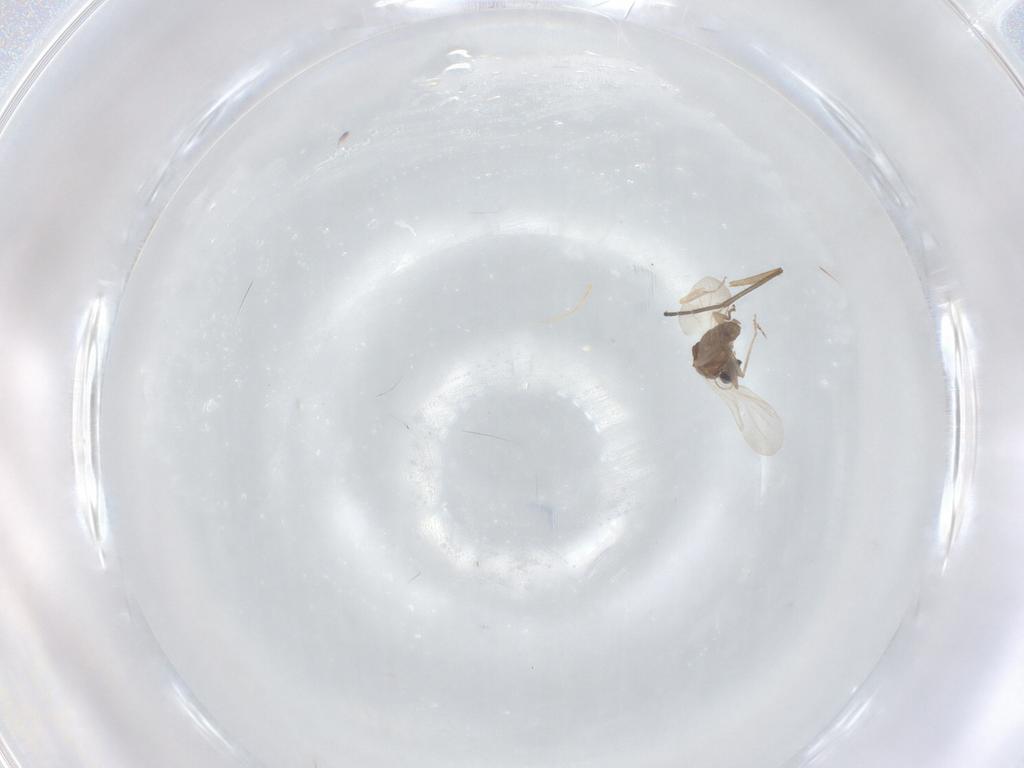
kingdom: Animalia
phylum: Arthropoda
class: Insecta
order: Diptera
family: Ceratopogonidae
